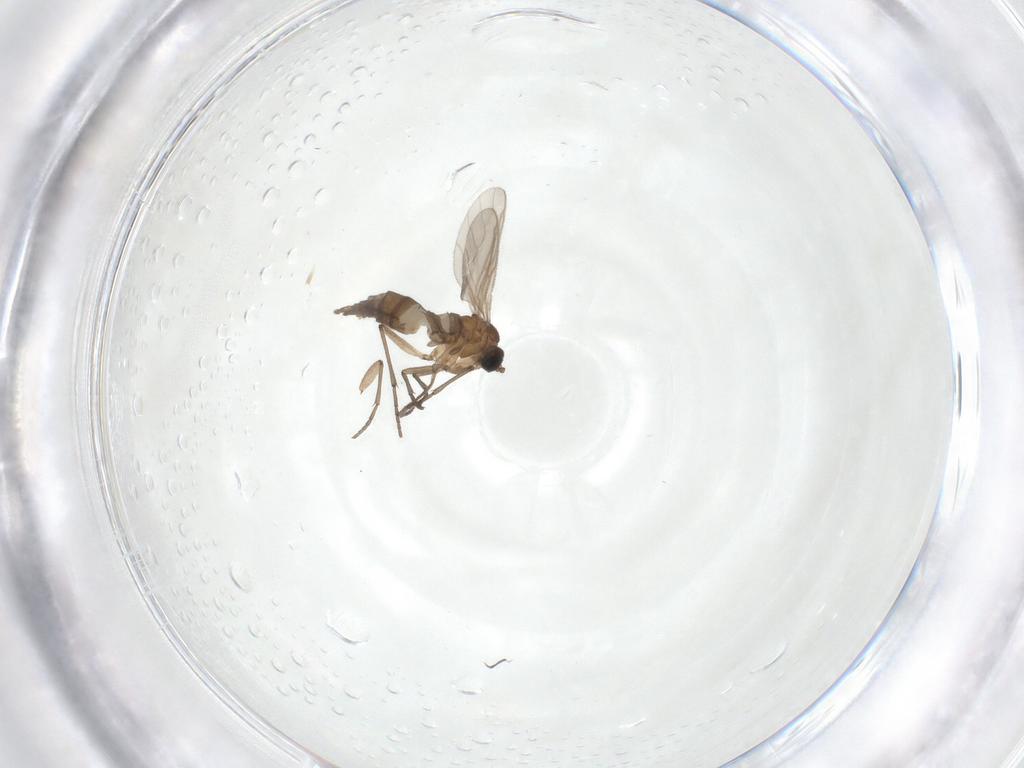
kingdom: Animalia
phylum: Arthropoda
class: Insecta
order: Diptera
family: Sciaridae
